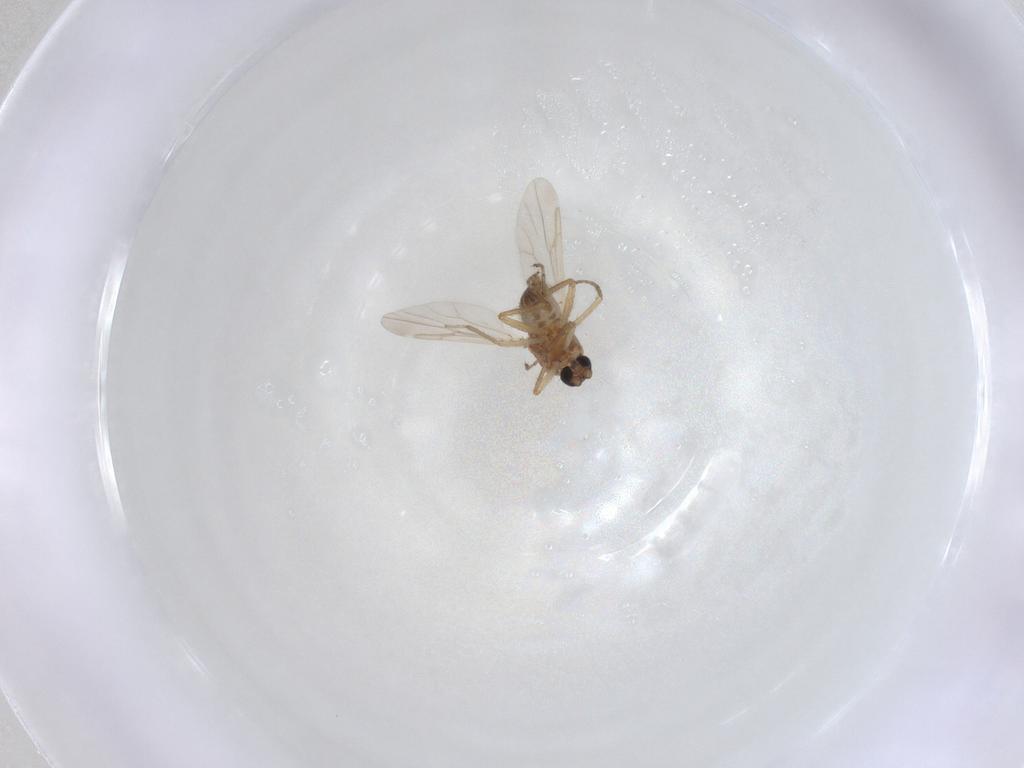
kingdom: Animalia
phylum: Arthropoda
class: Insecta
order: Diptera
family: Ceratopogonidae
